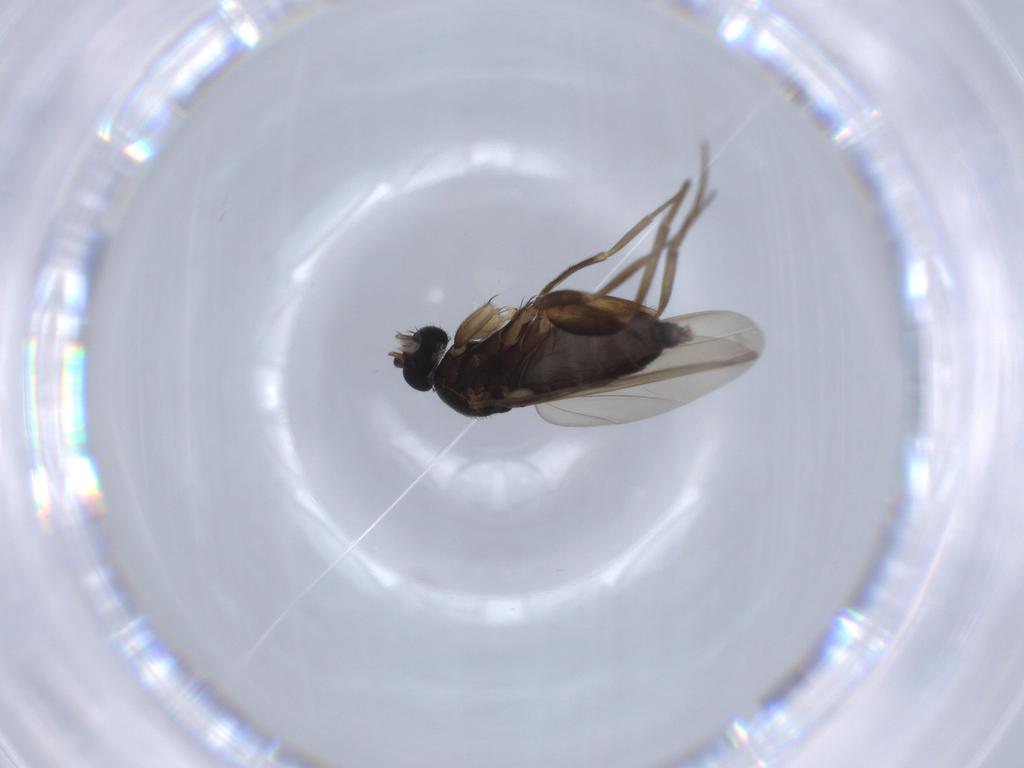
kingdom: Animalia
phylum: Arthropoda
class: Insecta
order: Diptera
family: Phoridae
